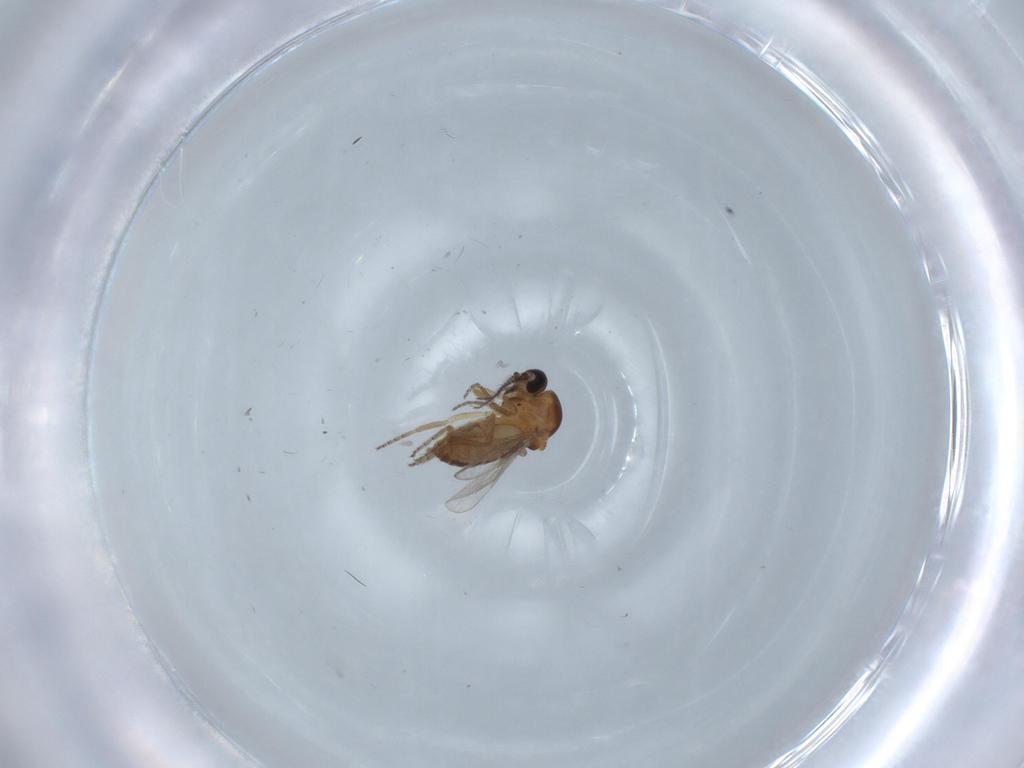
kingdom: Animalia
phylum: Arthropoda
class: Insecta
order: Diptera
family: Ceratopogonidae
